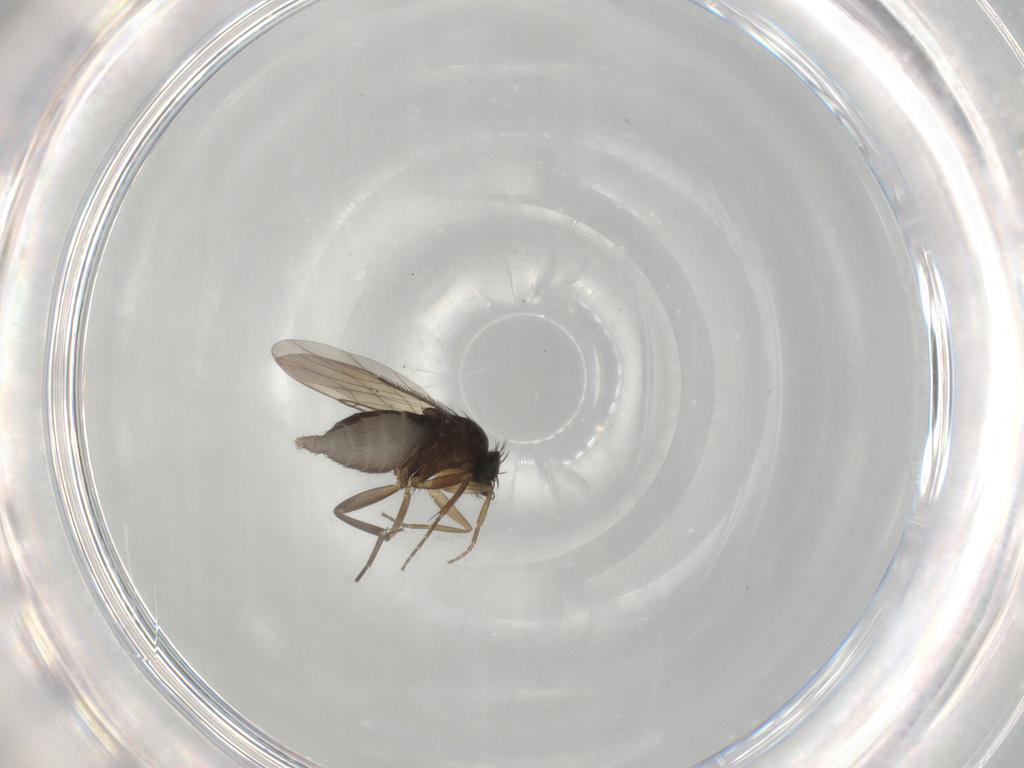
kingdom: Animalia
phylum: Arthropoda
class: Insecta
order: Diptera
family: Phoridae
